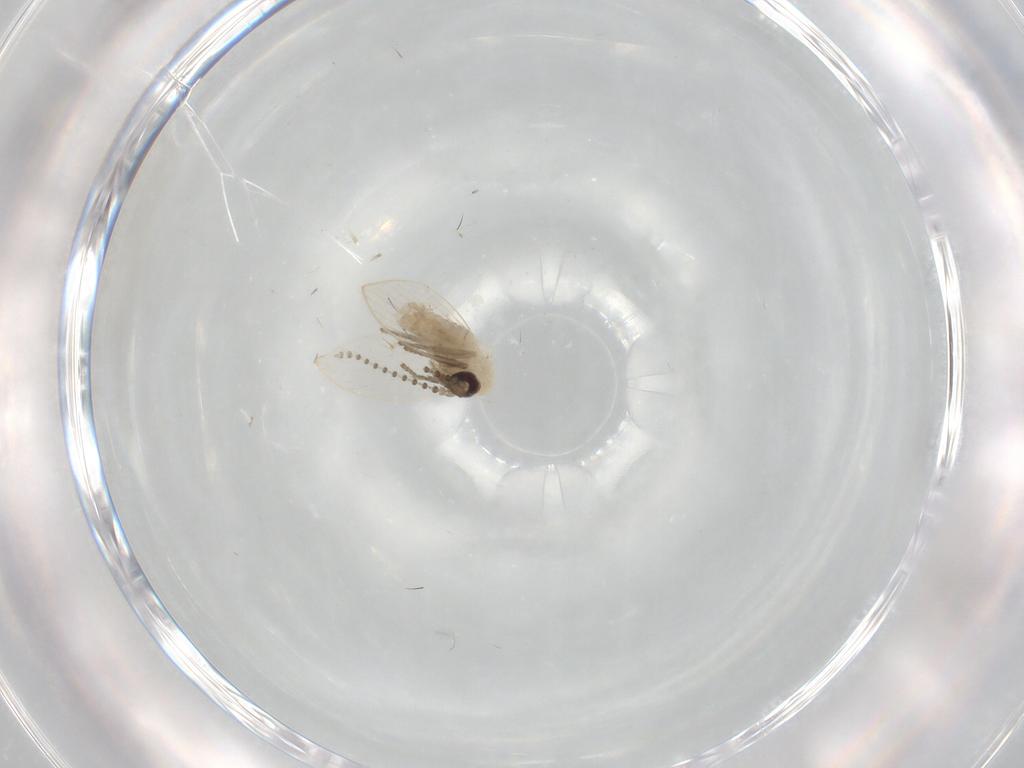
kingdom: Animalia
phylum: Arthropoda
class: Insecta
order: Diptera
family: Psychodidae
